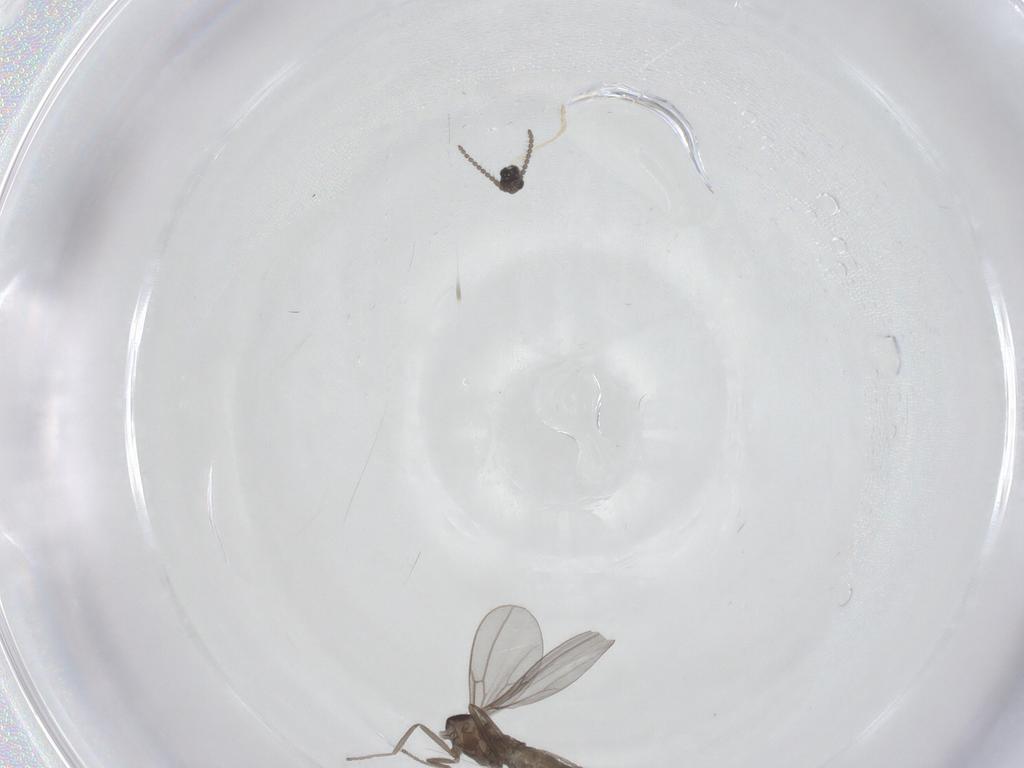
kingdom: Animalia
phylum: Arthropoda
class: Insecta
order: Diptera
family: Cecidomyiidae
